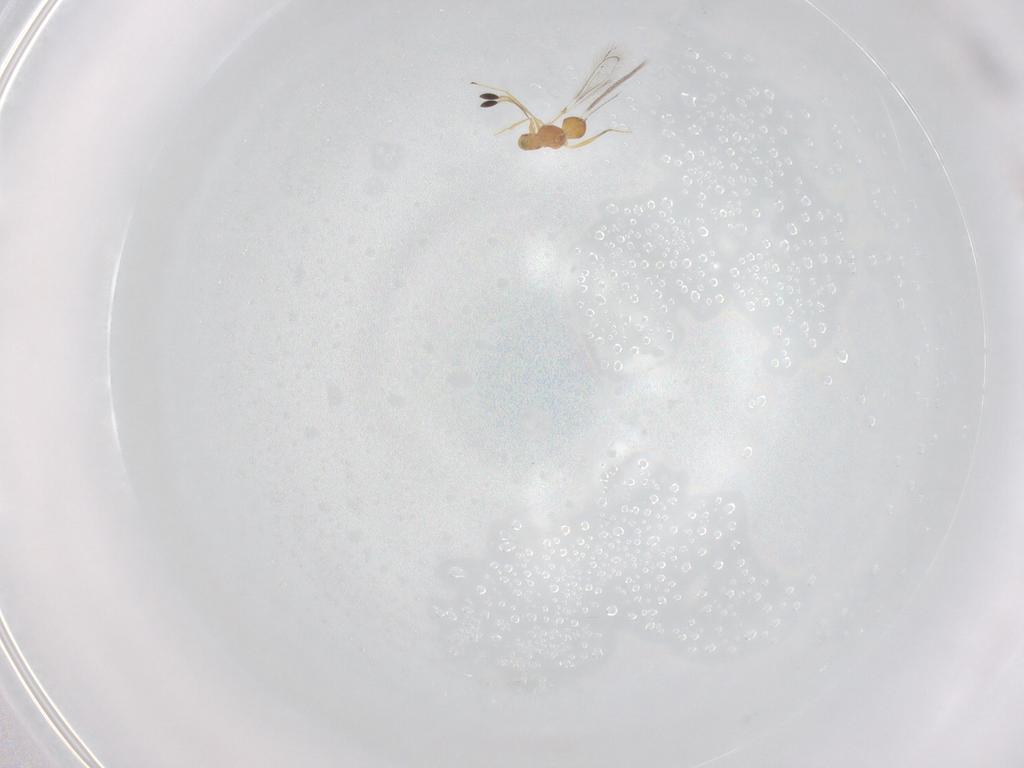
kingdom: Animalia
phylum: Arthropoda
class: Insecta
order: Hymenoptera
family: Mymaridae
